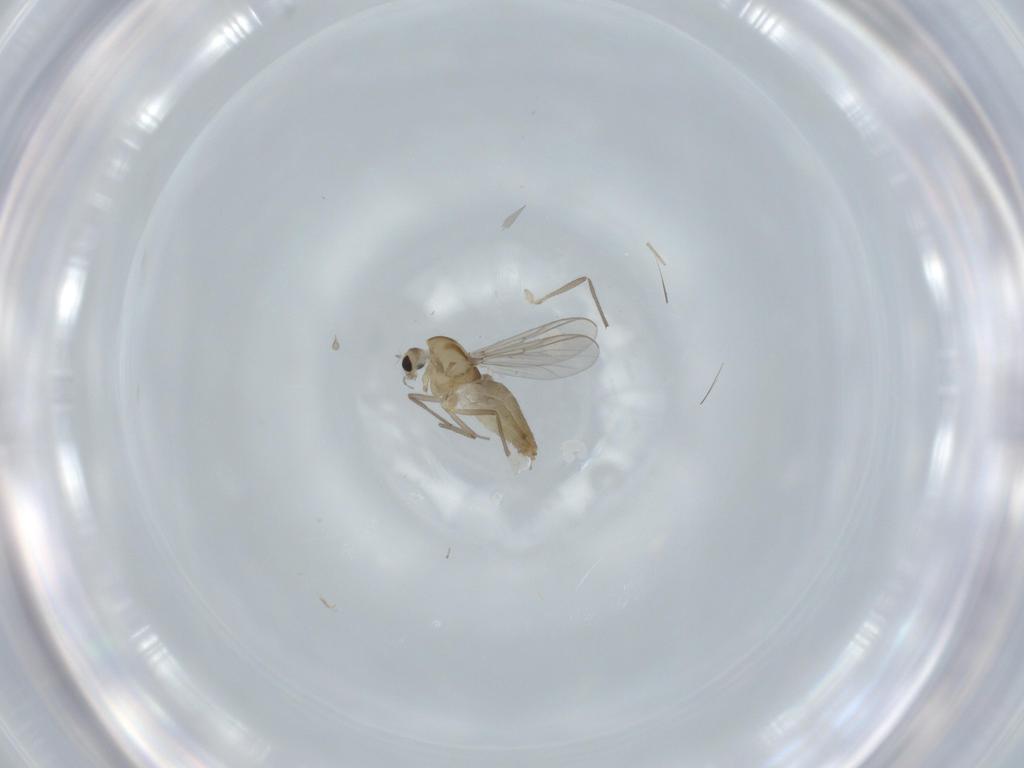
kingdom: Animalia
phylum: Arthropoda
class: Insecta
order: Diptera
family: Chironomidae
